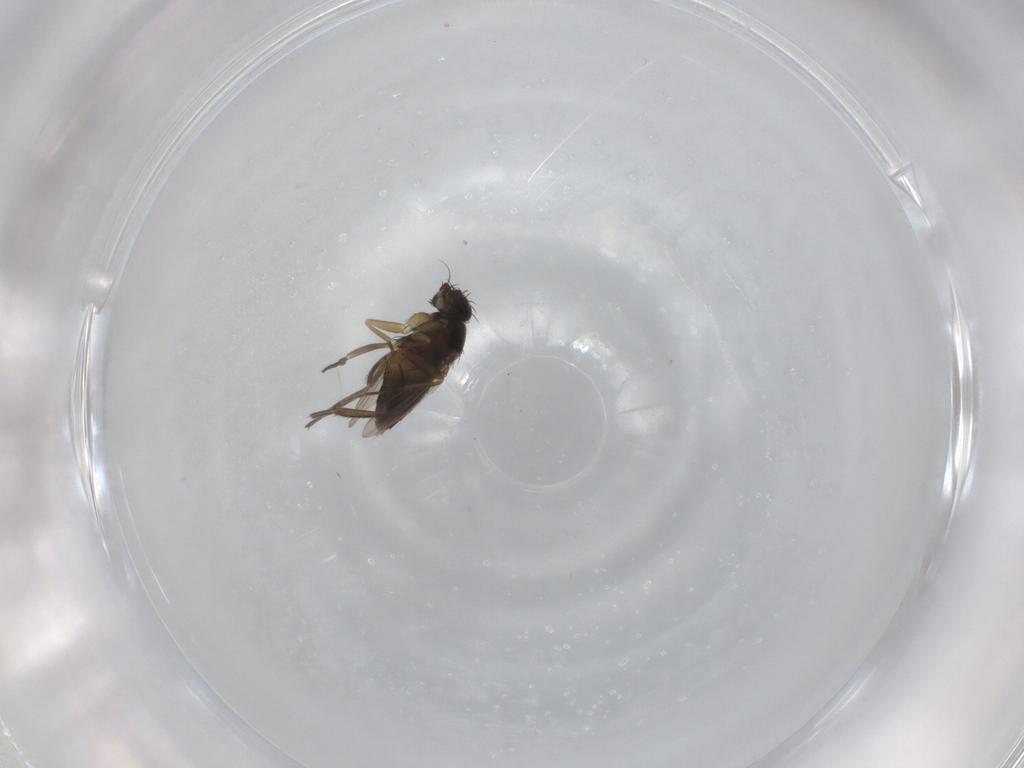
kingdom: Animalia
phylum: Arthropoda
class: Insecta
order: Diptera
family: Phoridae
